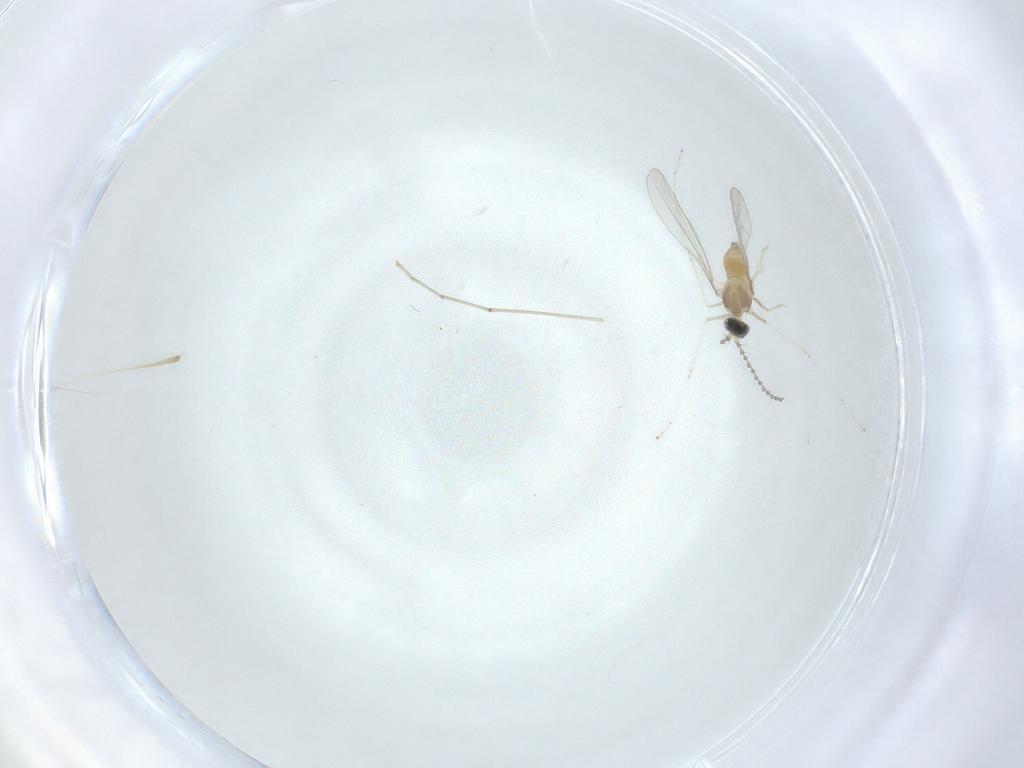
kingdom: Animalia
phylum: Arthropoda
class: Insecta
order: Diptera
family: Cecidomyiidae
